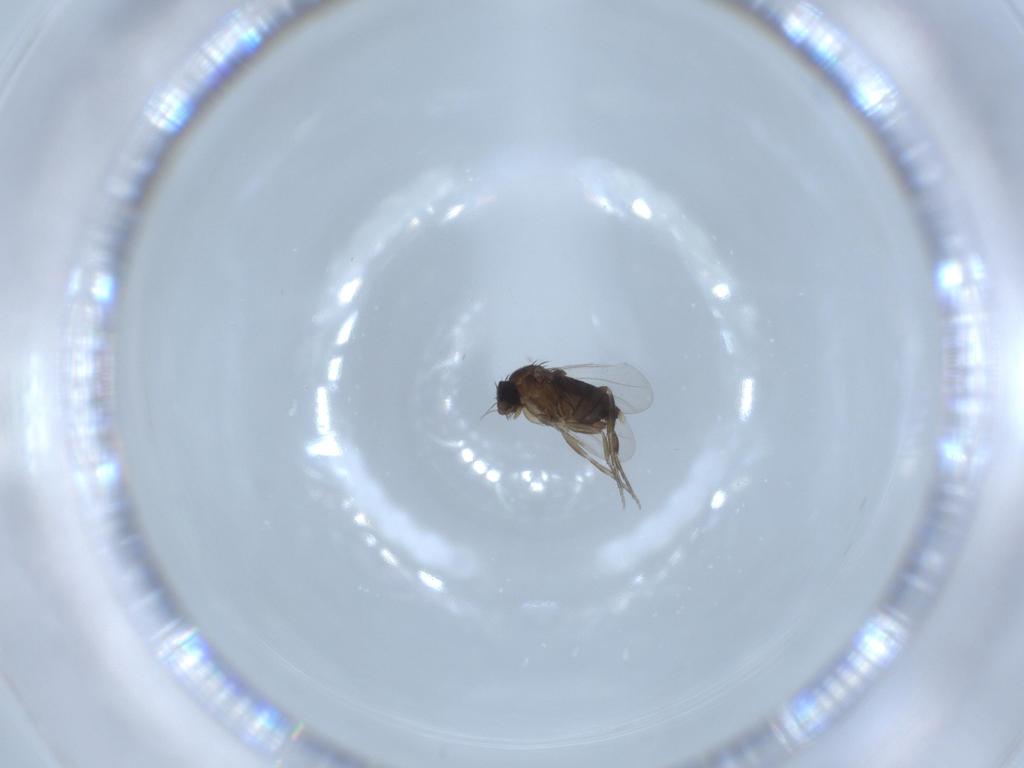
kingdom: Animalia
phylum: Arthropoda
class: Insecta
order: Diptera
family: Phoridae
